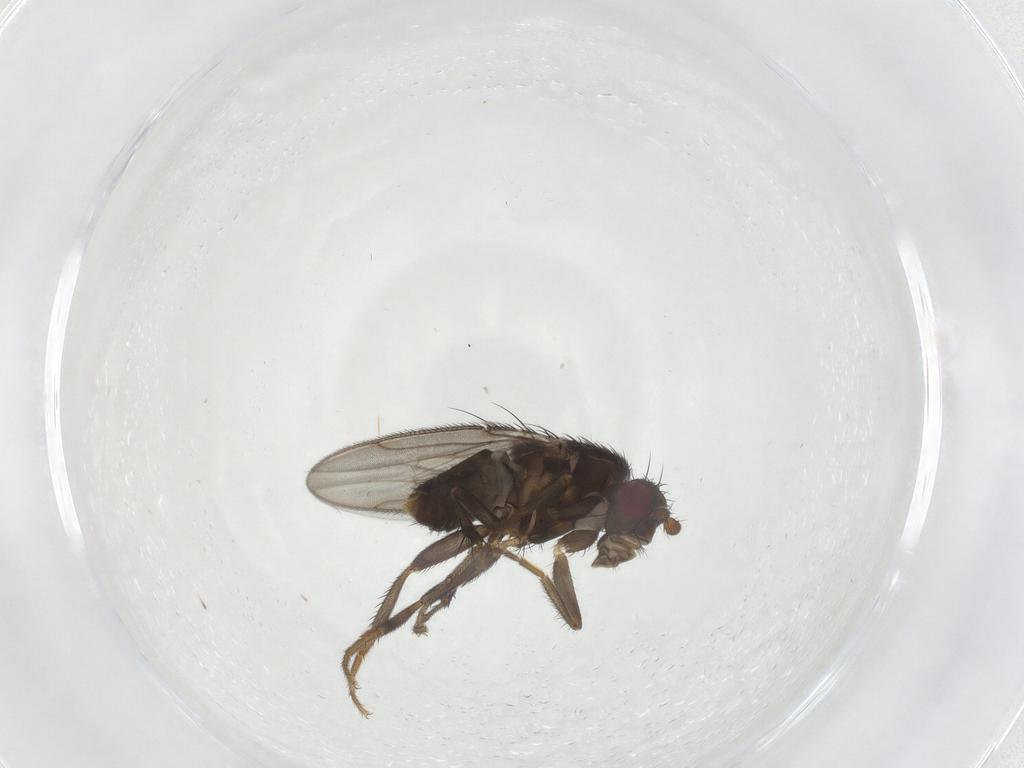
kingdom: Animalia
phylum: Arthropoda
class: Insecta
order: Diptera
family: Sphaeroceridae
